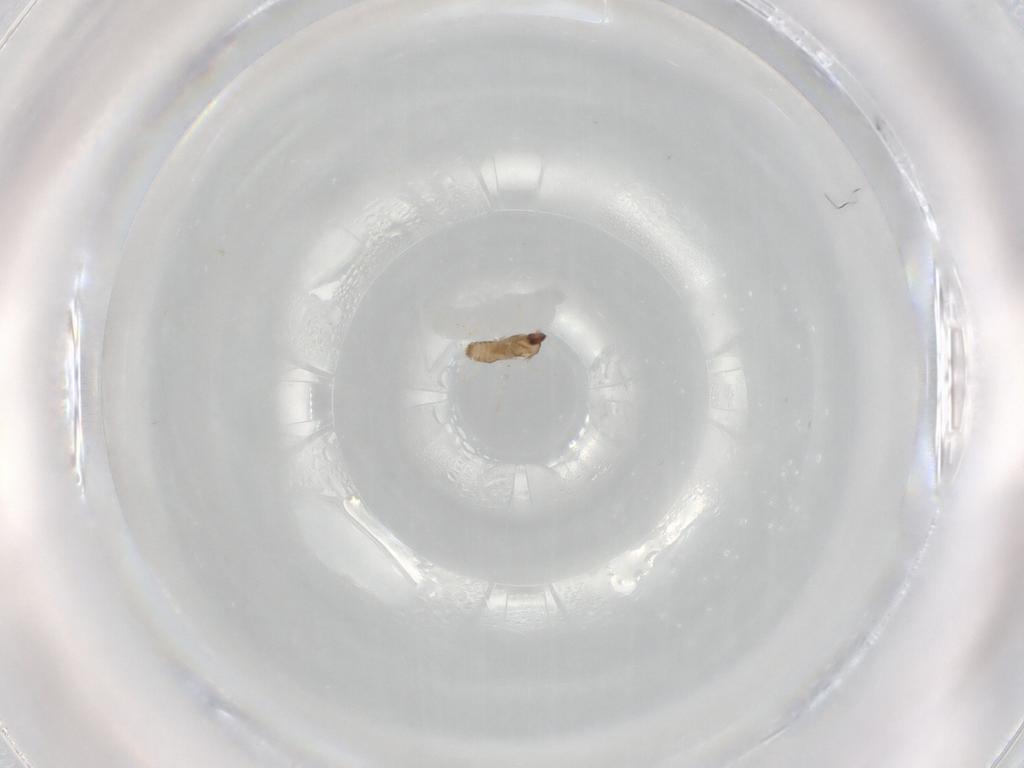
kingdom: Animalia
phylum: Arthropoda
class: Insecta
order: Diptera
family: Cecidomyiidae
